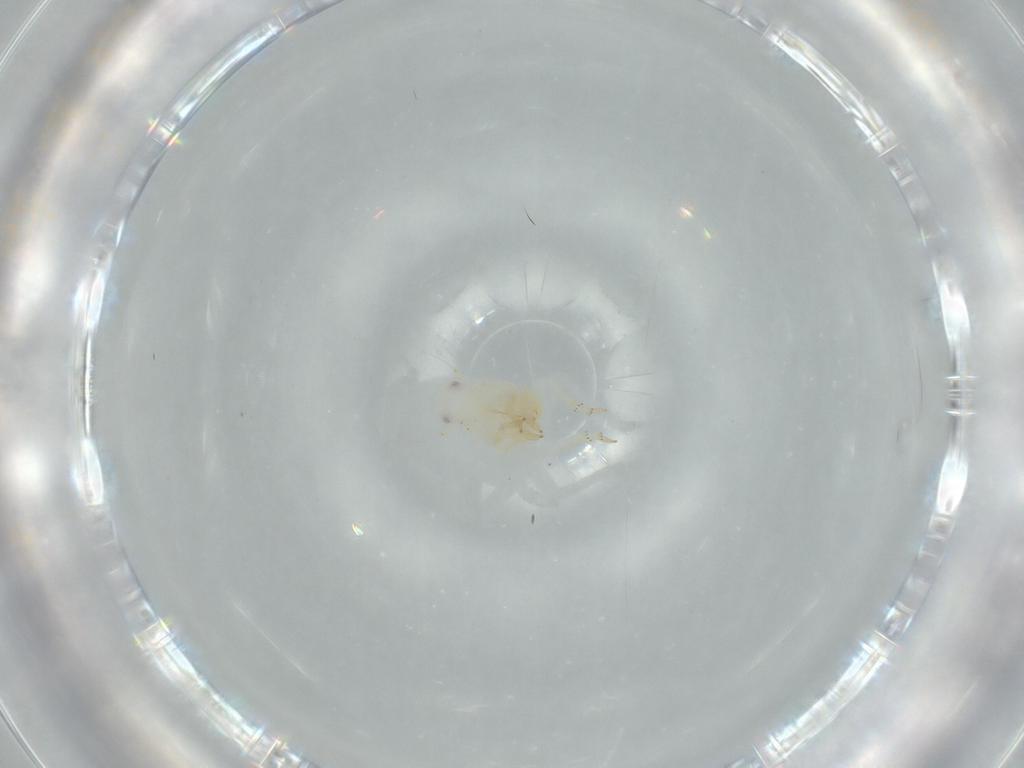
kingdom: Animalia
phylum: Arthropoda
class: Insecta
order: Hemiptera
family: Flatidae
